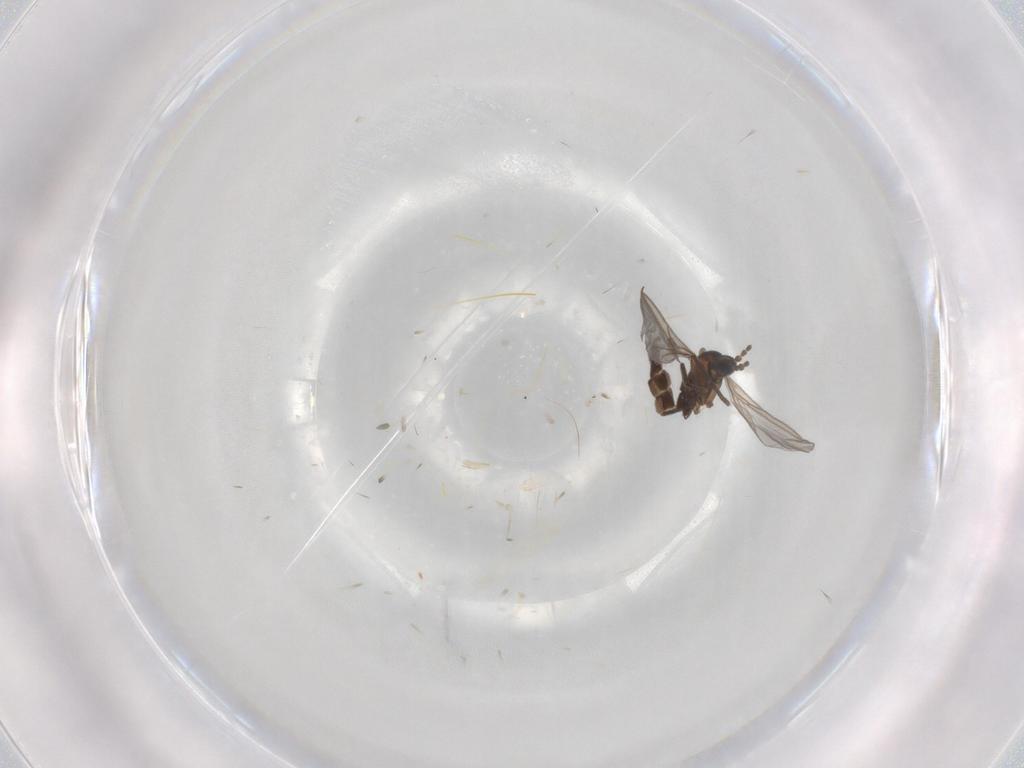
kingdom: Animalia
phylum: Arthropoda
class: Insecta
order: Diptera
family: Sciaridae
